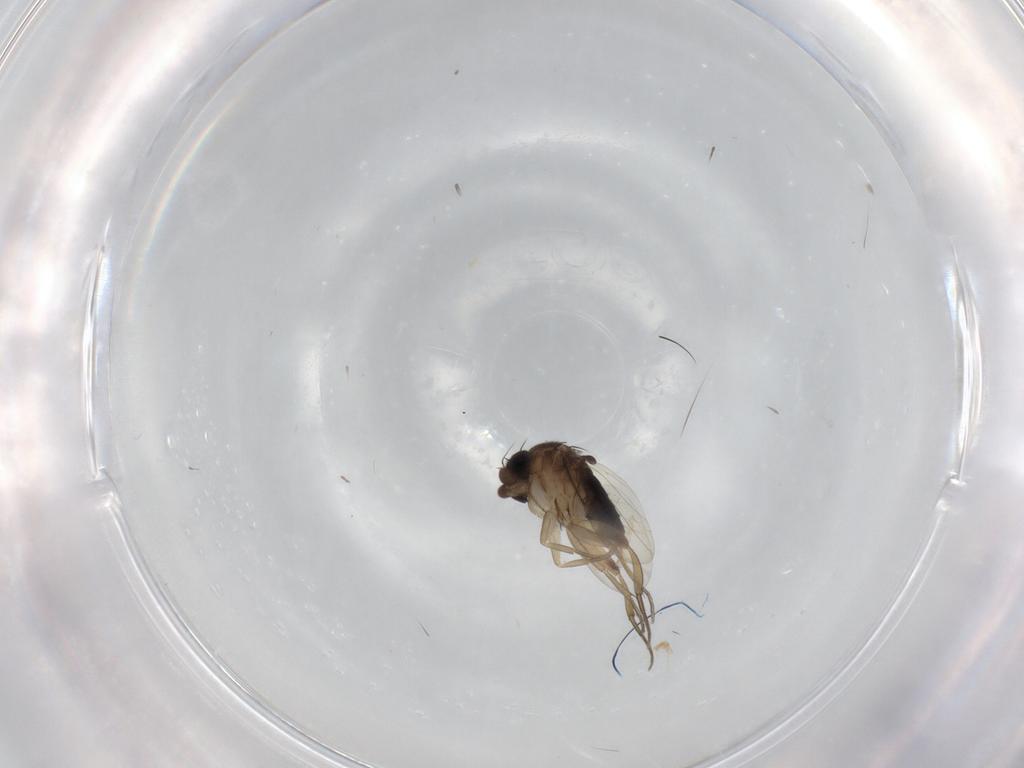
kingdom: Animalia
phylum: Arthropoda
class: Insecta
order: Diptera
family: Phoridae
